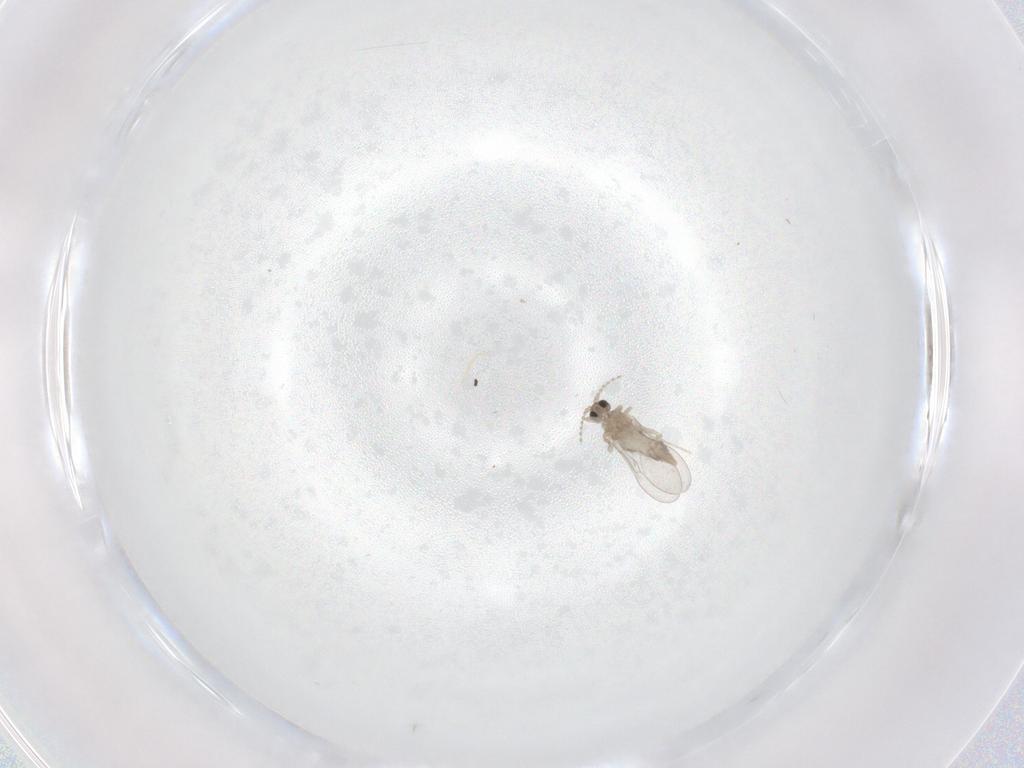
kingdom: Animalia
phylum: Arthropoda
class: Insecta
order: Diptera
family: Cecidomyiidae
